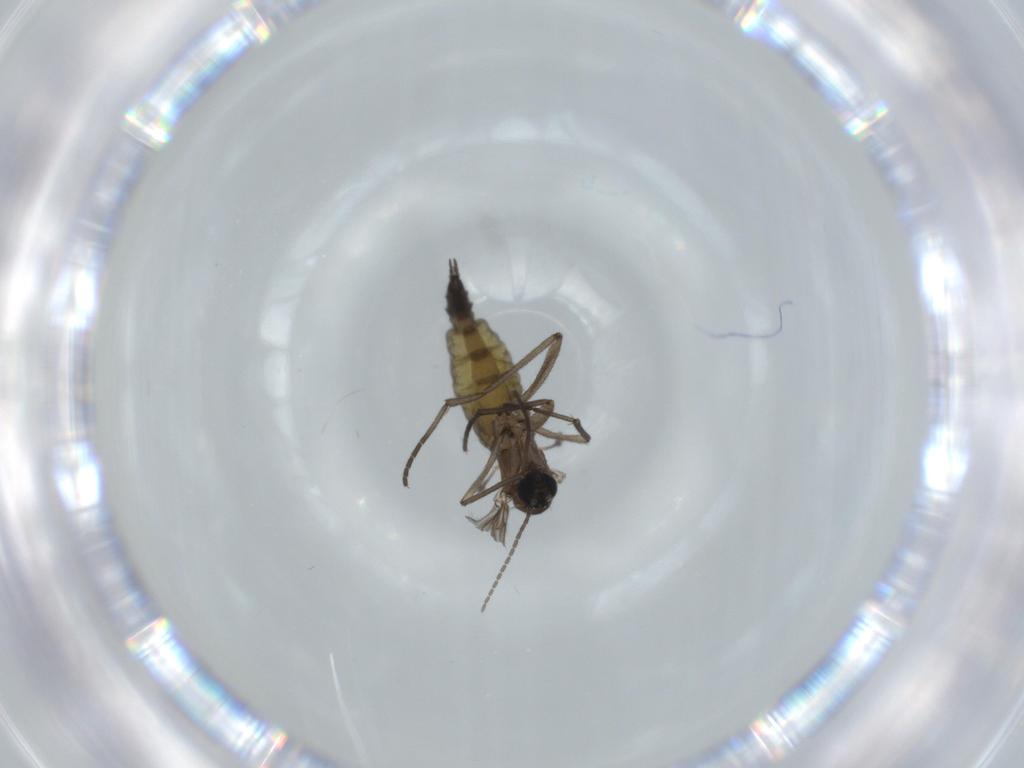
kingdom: Animalia
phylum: Arthropoda
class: Insecta
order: Diptera
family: Sciaridae
